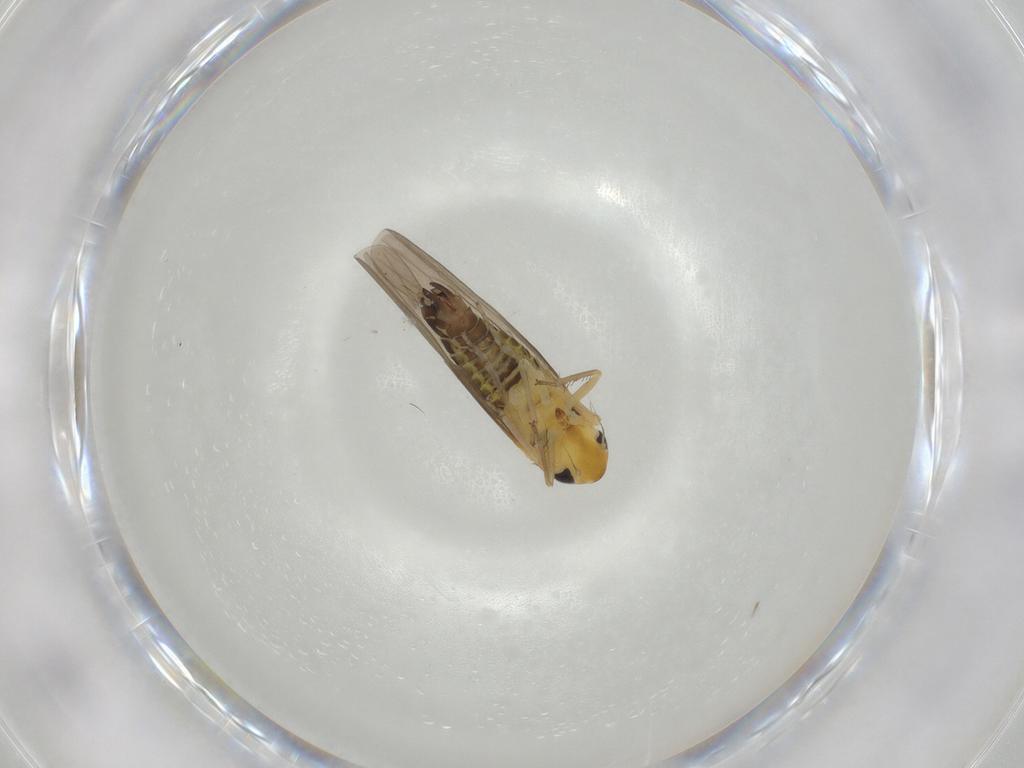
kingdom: Animalia
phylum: Arthropoda
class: Insecta
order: Hemiptera
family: Cicadellidae
